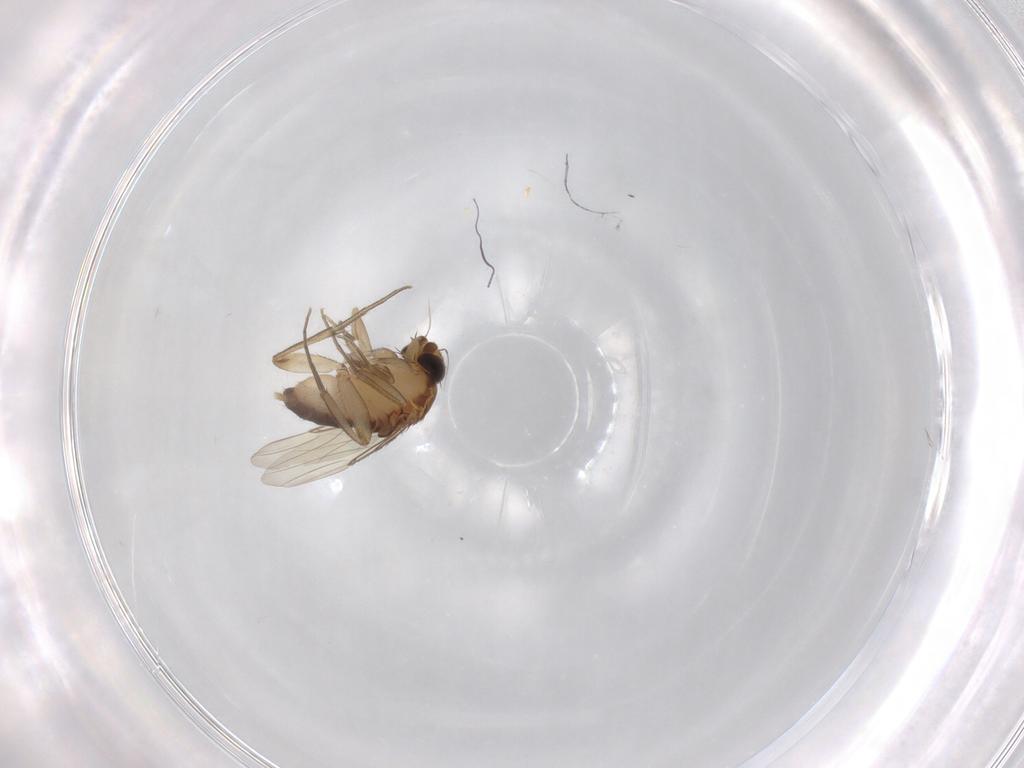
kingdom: Animalia
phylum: Arthropoda
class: Insecta
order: Diptera
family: Phoridae
